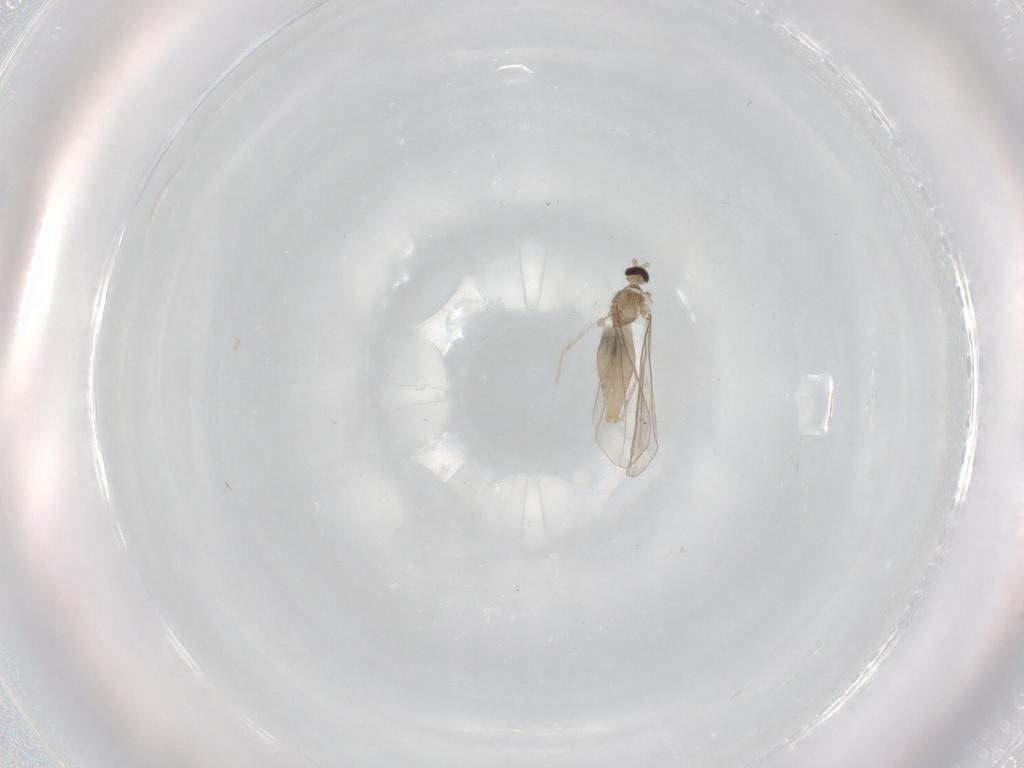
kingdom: Animalia
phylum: Arthropoda
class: Insecta
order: Diptera
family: Cecidomyiidae
